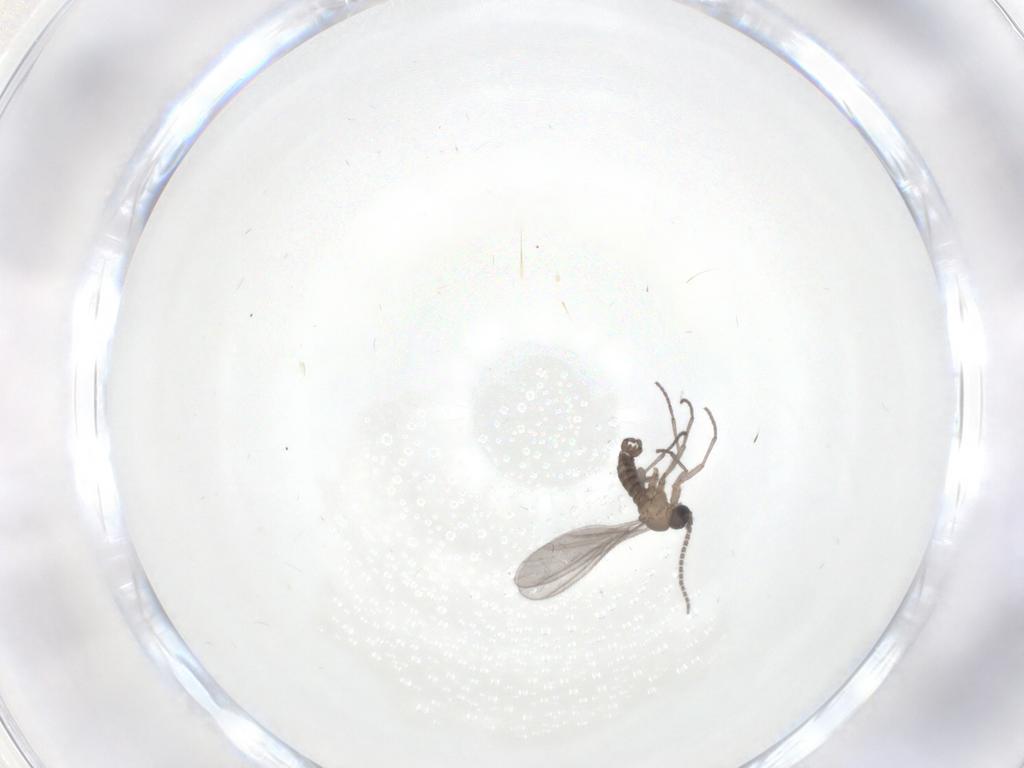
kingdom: Animalia
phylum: Arthropoda
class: Insecta
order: Diptera
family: Sciaridae
